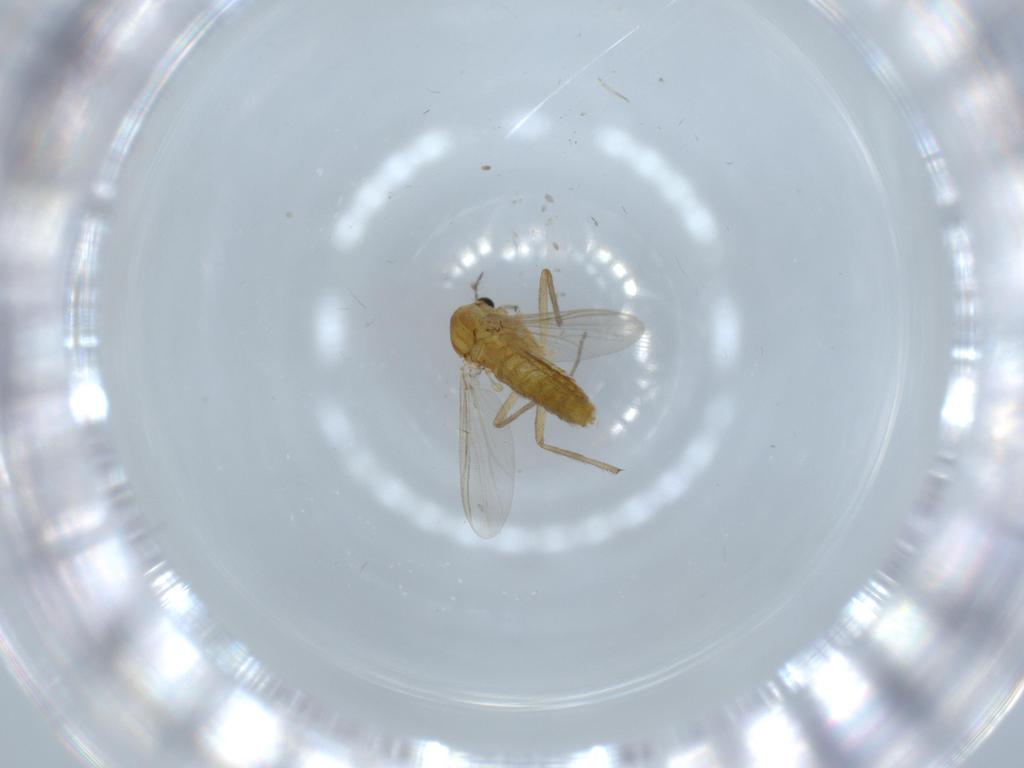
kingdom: Animalia
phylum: Arthropoda
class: Insecta
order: Diptera
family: Chironomidae
